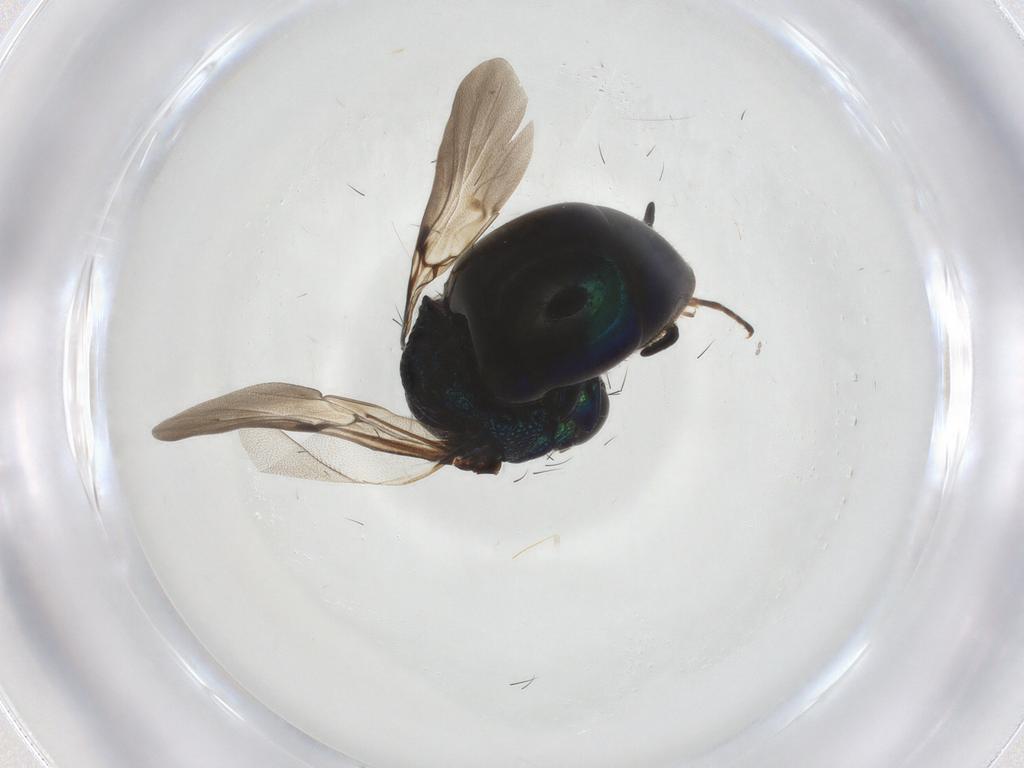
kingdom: Animalia
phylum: Arthropoda
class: Insecta
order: Diptera
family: Heleomyzidae
